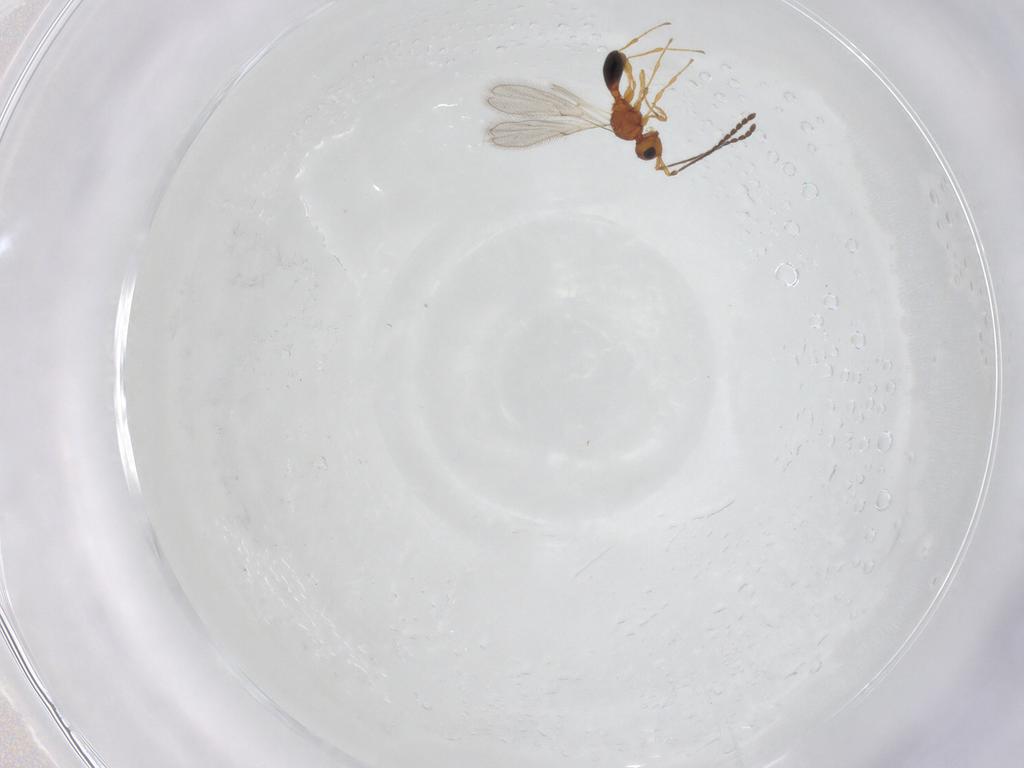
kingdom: Animalia
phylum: Arthropoda
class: Insecta
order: Hymenoptera
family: Diapriidae
